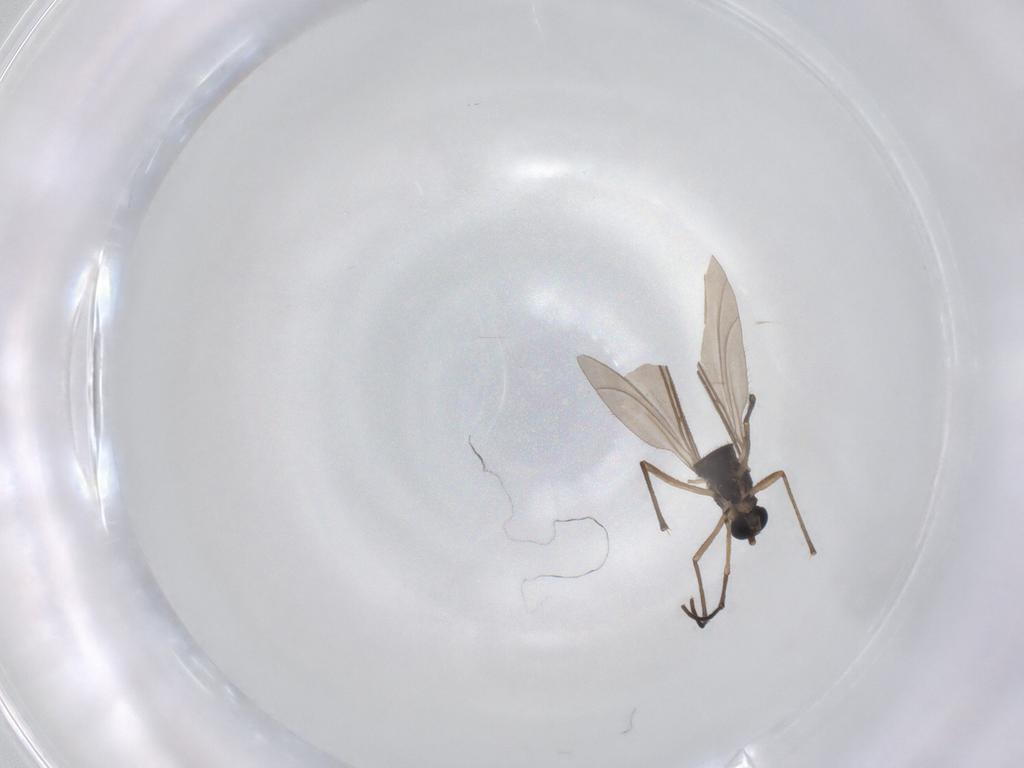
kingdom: Animalia
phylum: Arthropoda
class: Insecta
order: Diptera
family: Sciaridae
